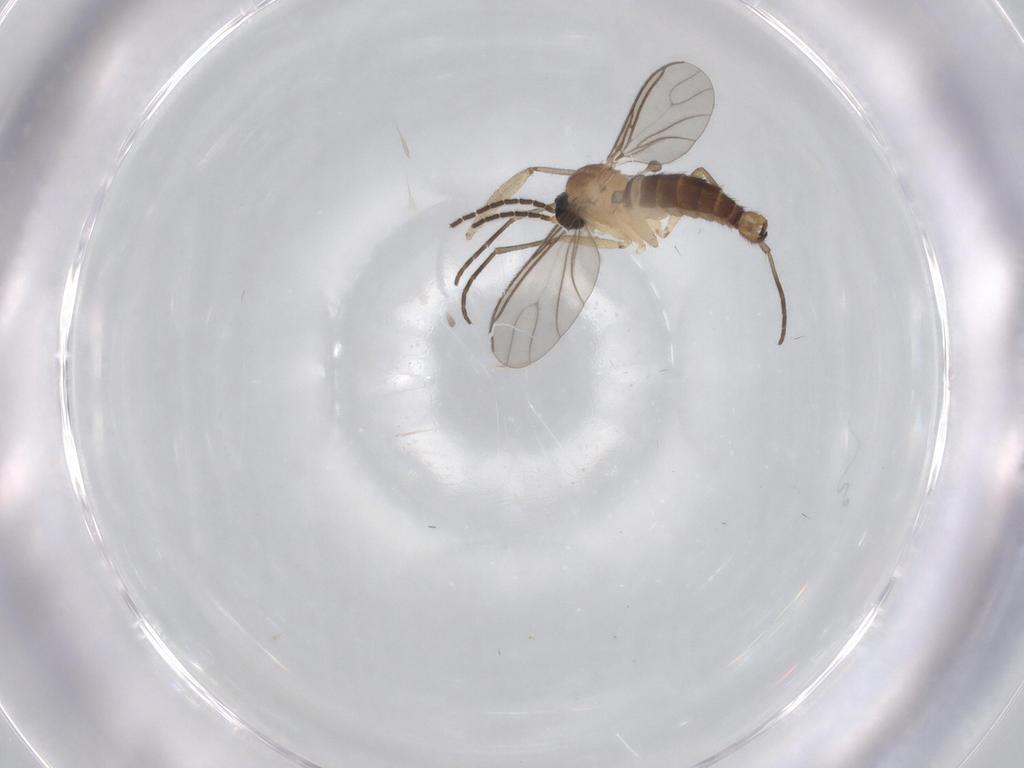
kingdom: Animalia
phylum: Arthropoda
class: Insecta
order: Diptera
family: Sciaridae
